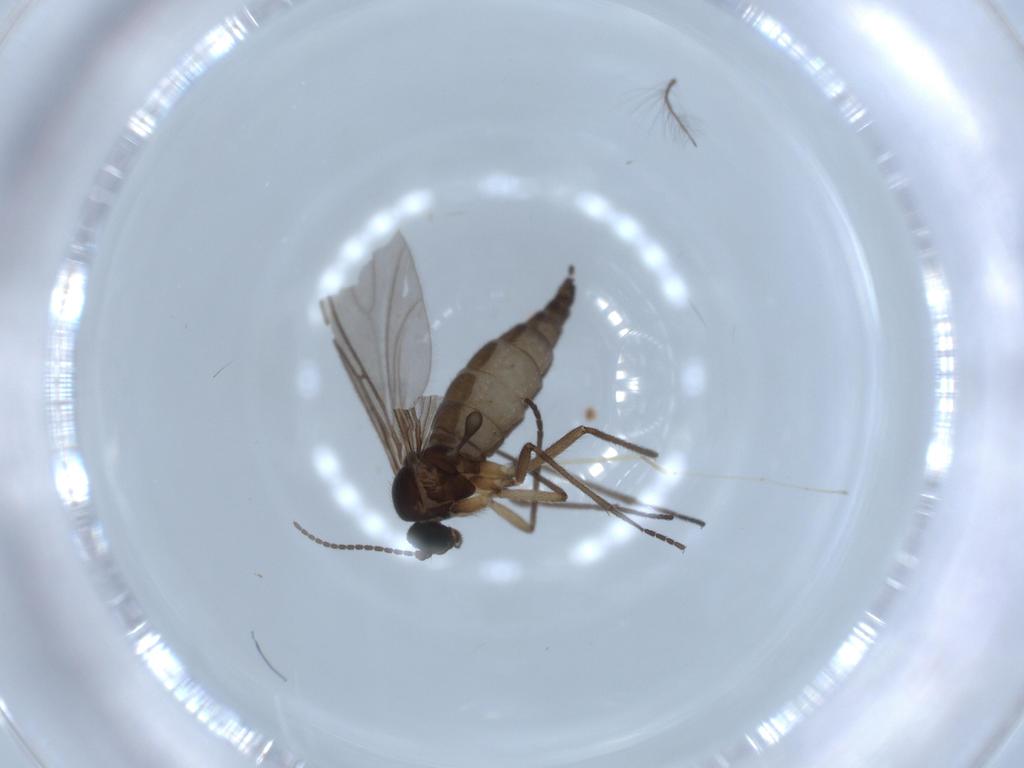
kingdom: Animalia
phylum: Arthropoda
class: Insecta
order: Diptera
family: Sciaridae
